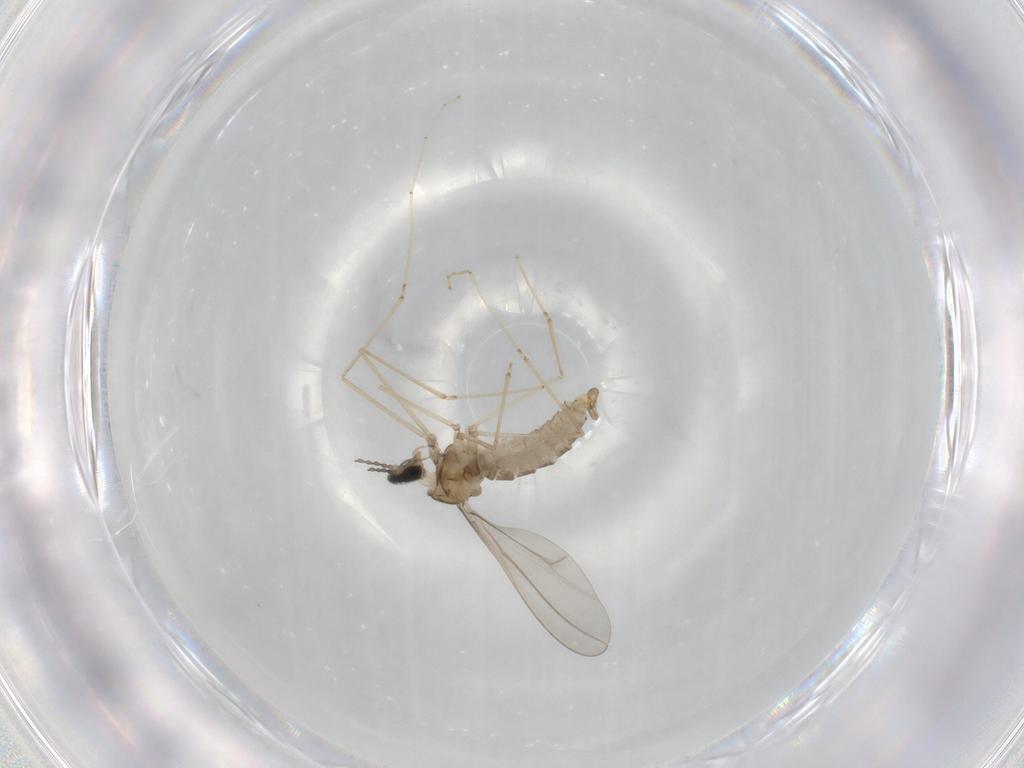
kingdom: Animalia
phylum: Arthropoda
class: Insecta
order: Diptera
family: Cecidomyiidae
